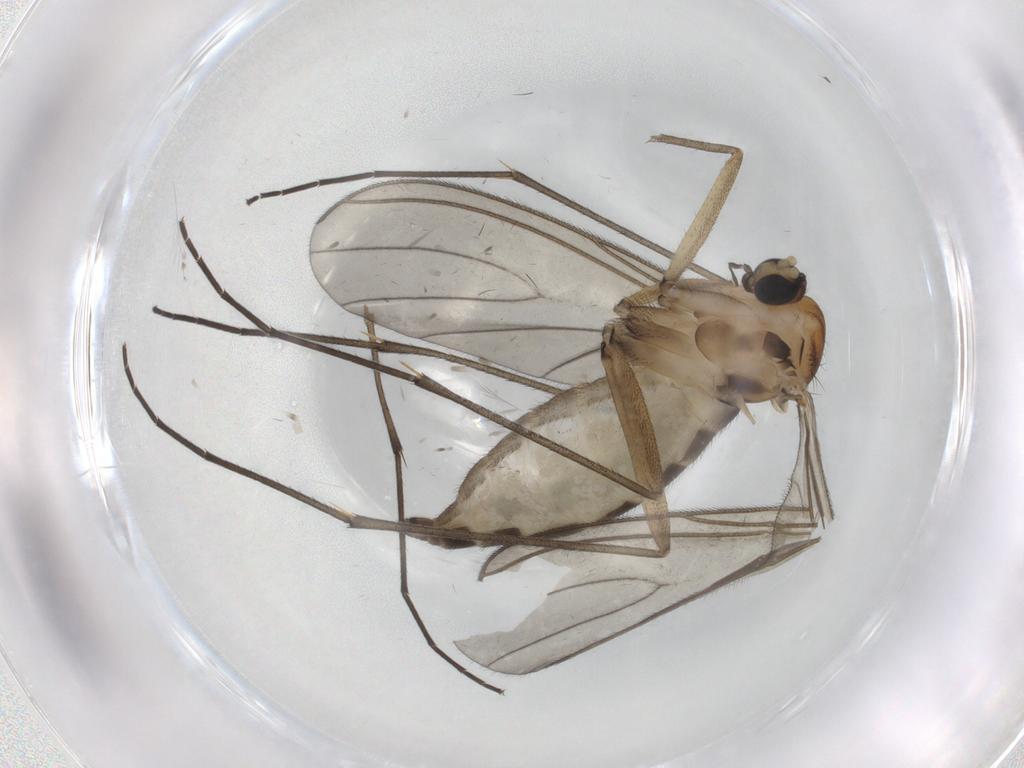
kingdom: Animalia
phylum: Arthropoda
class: Insecta
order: Diptera
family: Sciaridae
